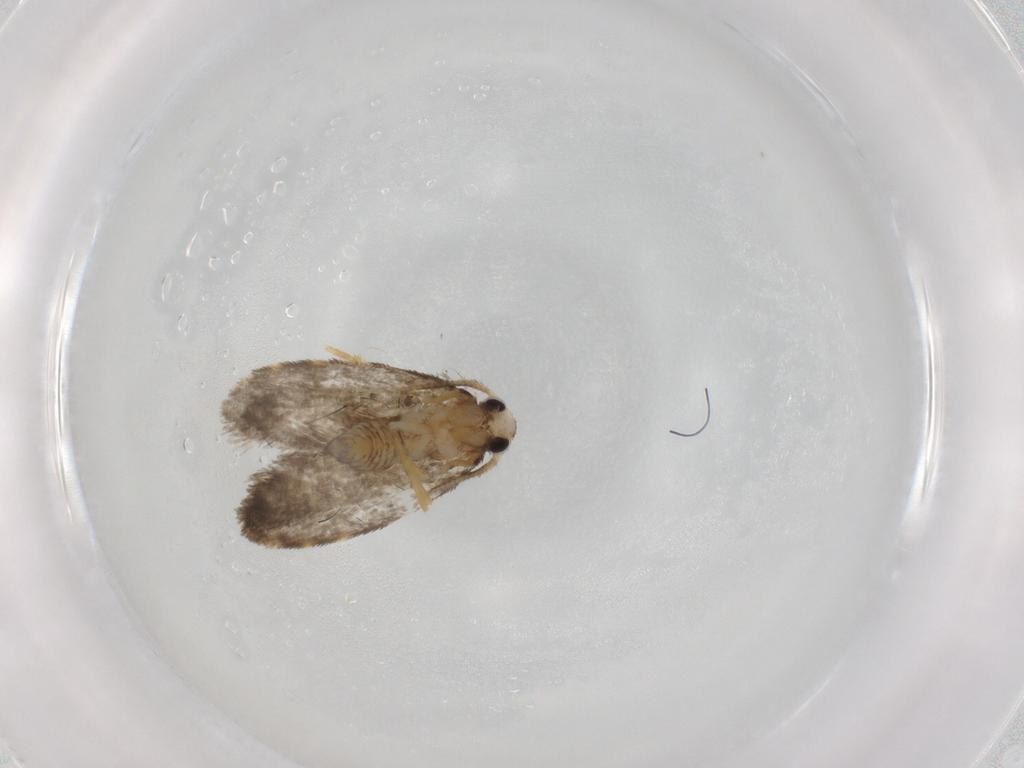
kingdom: Animalia
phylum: Arthropoda
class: Insecta
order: Lepidoptera
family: Psychidae
